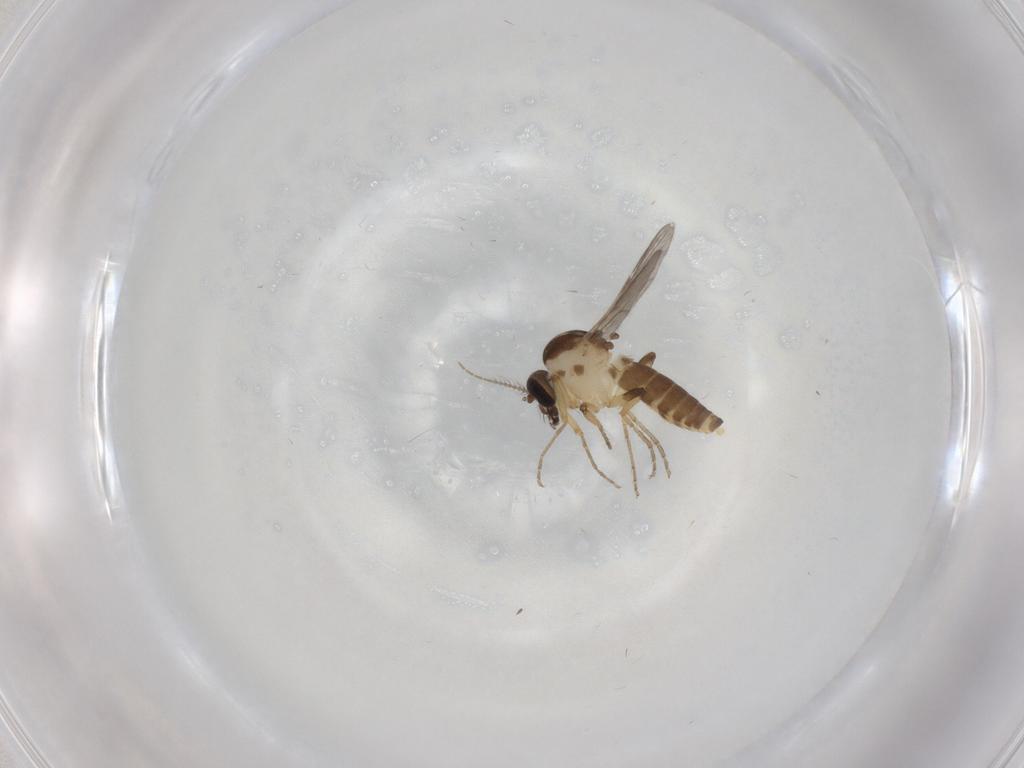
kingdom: Animalia
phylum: Arthropoda
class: Insecta
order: Diptera
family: Ceratopogonidae
